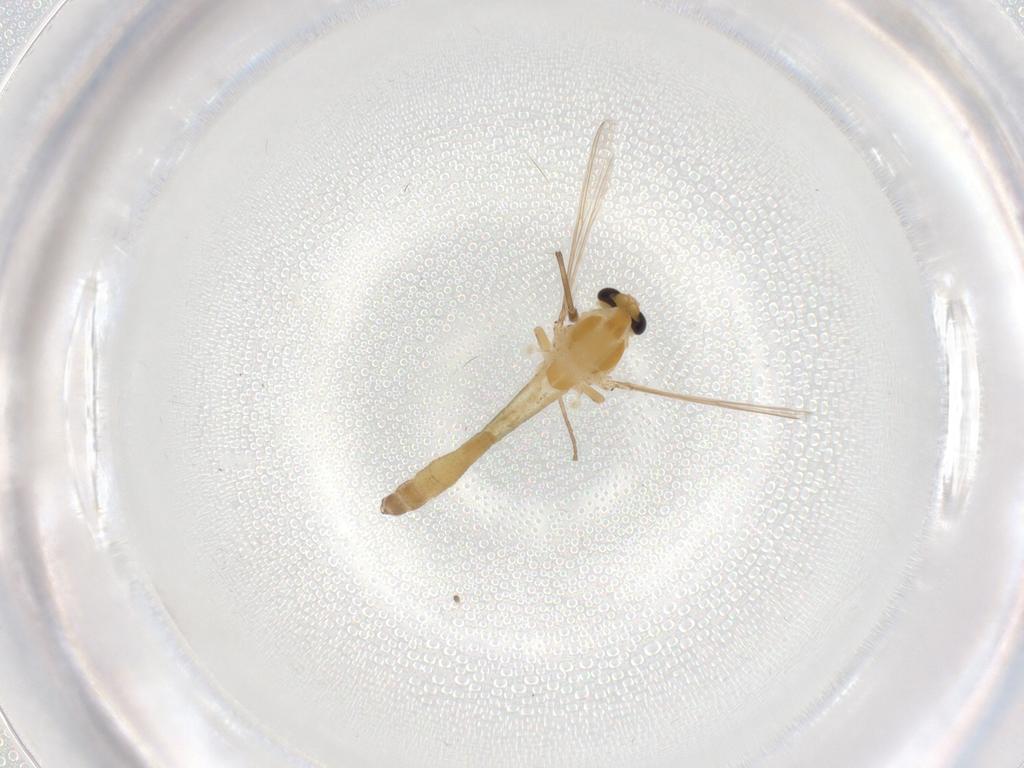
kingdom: Animalia
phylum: Arthropoda
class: Insecta
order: Diptera
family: Chironomidae
